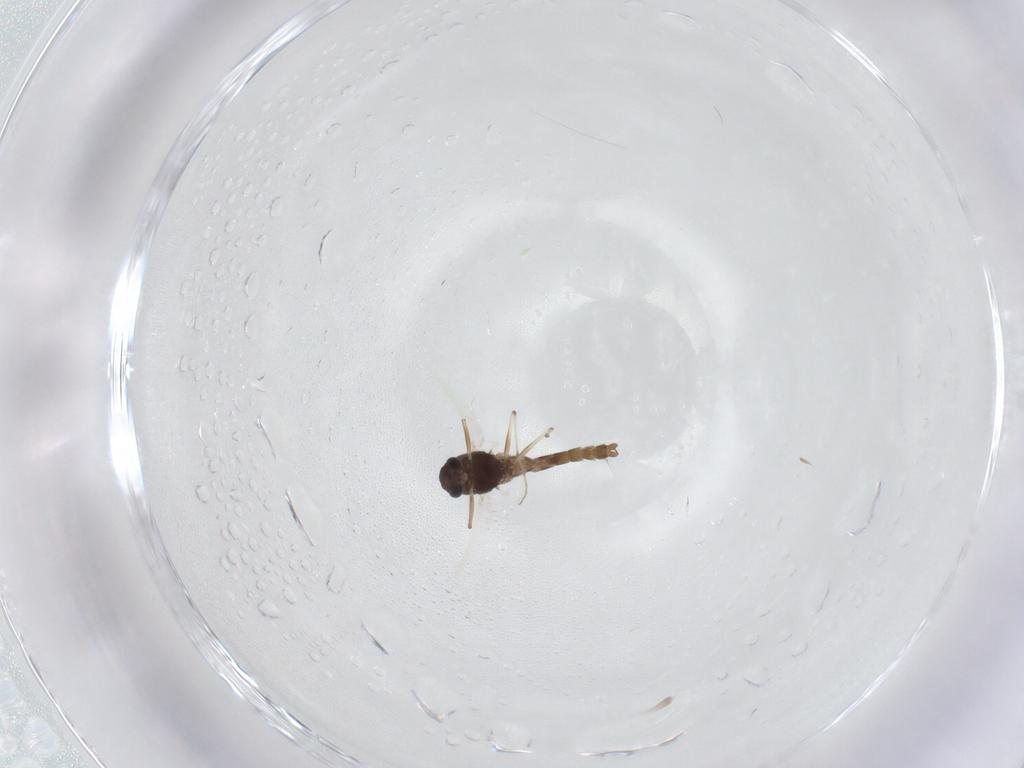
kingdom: Animalia
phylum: Arthropoda
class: Insecta
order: Diptera
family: Chironomidae
